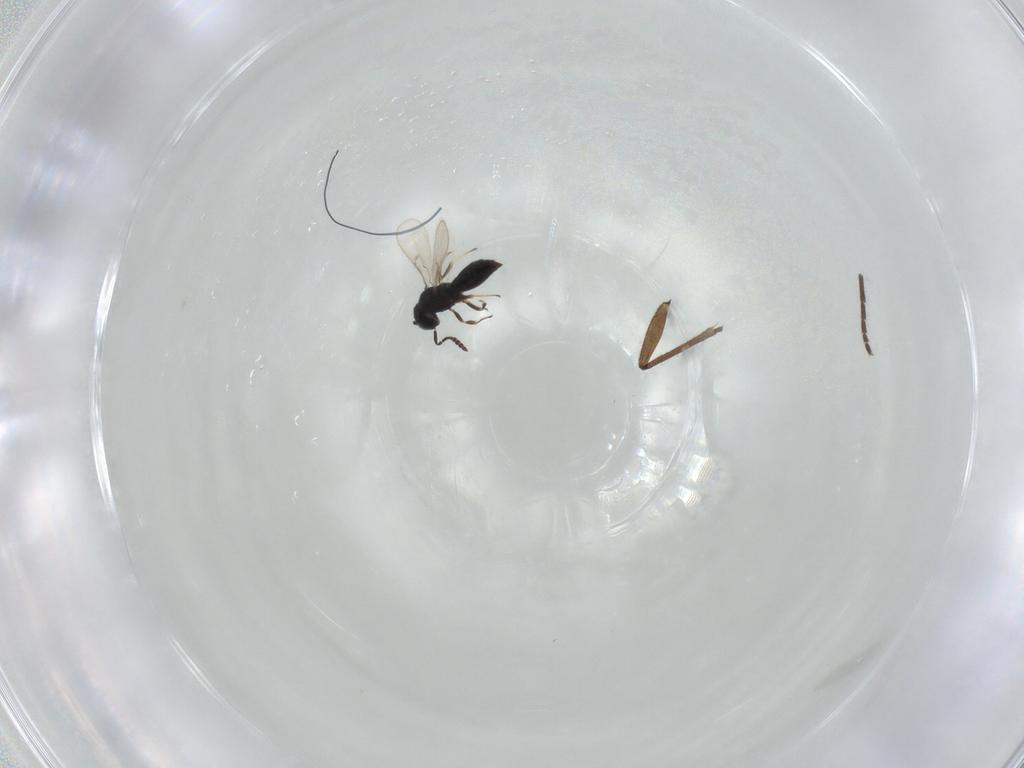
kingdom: Animalia
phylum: Arthropoda
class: Insecta
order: Hymenoptera
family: Scelionidae
